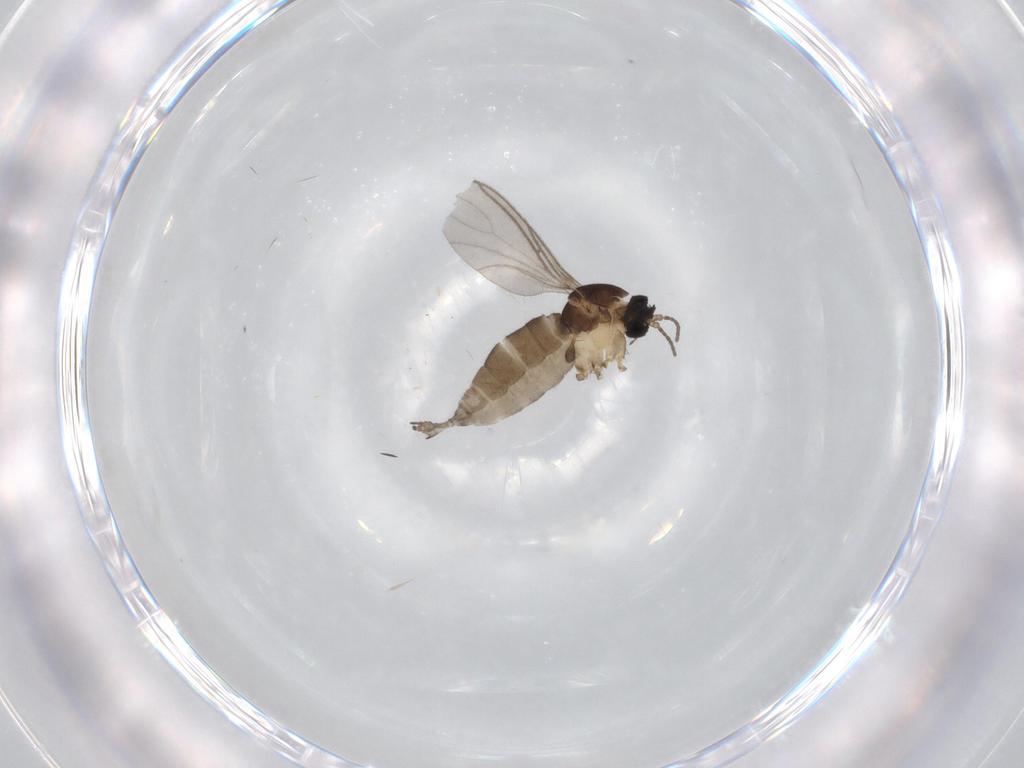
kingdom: Animalia
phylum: Arthropoda
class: Insecta
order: Diptera
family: Sciaridae
